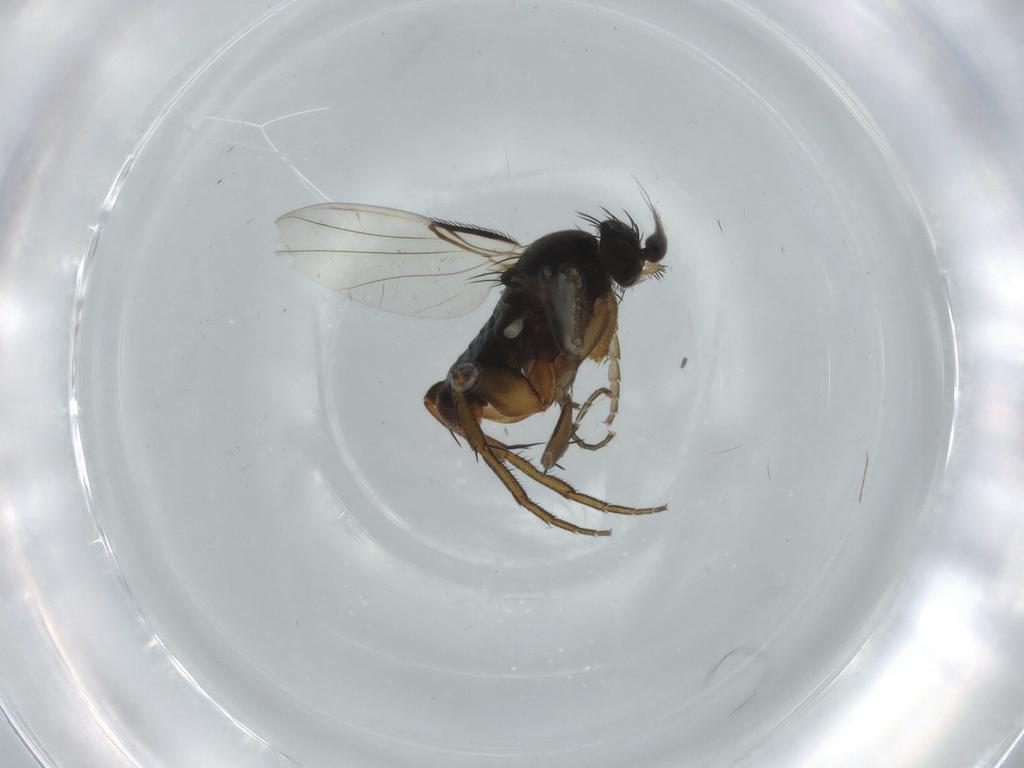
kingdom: Animalia
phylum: Arthropoda
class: Insecta
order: Diptera
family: Phoridae
